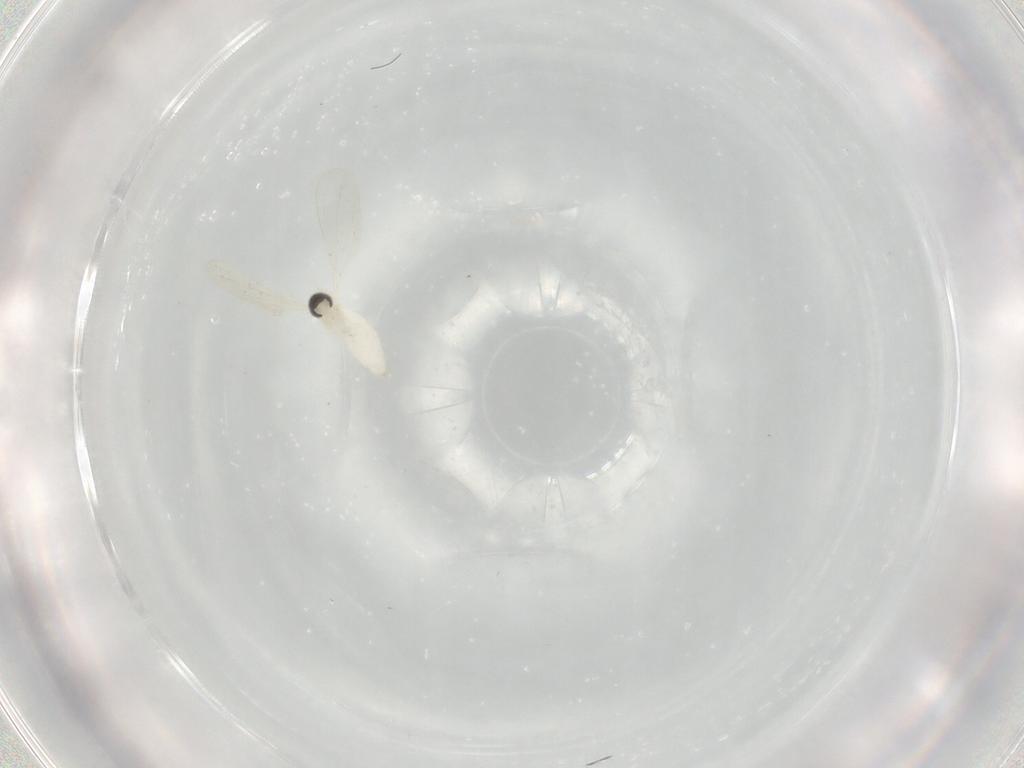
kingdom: Animalia
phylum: Arthropoda
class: Insecta
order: Diptera
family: Cecidomyiidae
